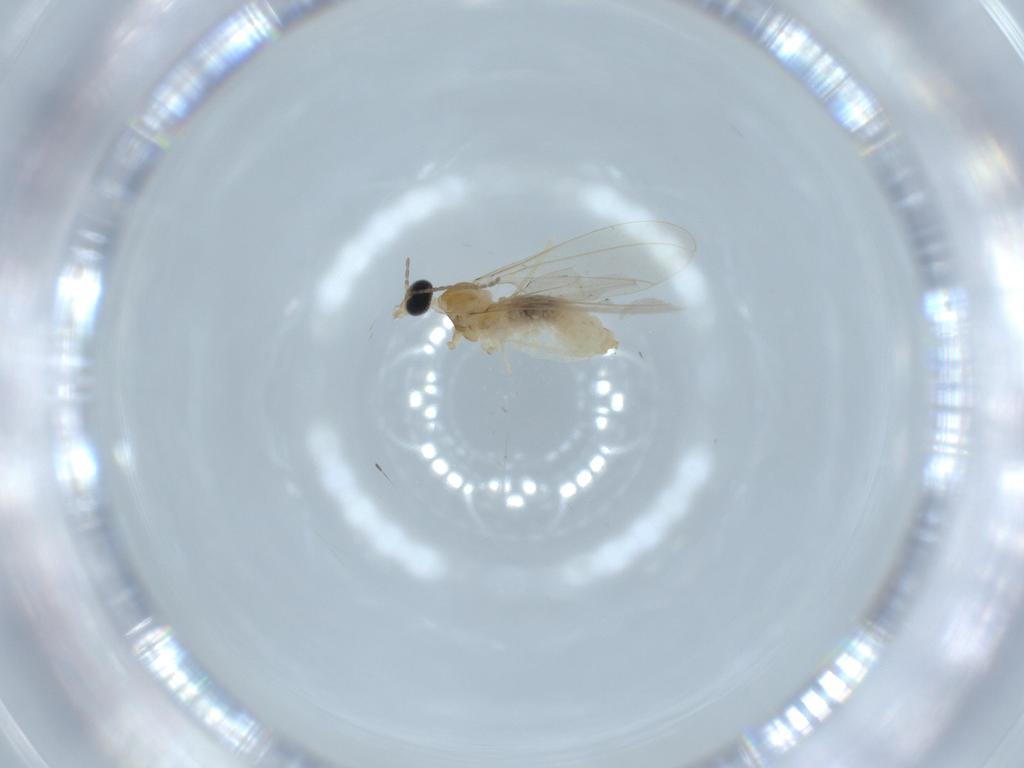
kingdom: Animalia
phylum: Arthropoda
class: Insecta
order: Diptera
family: Cecidomyiidae
